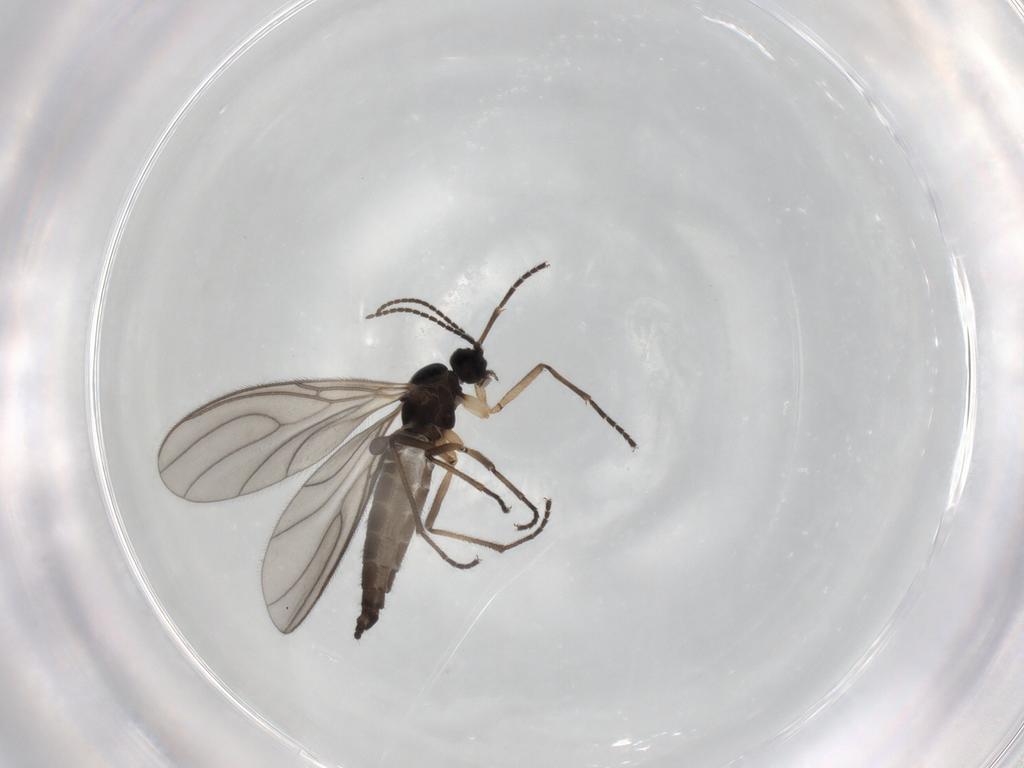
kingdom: Animalia
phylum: Arthropoda
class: Insecta
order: Diptera
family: Sciaridae
